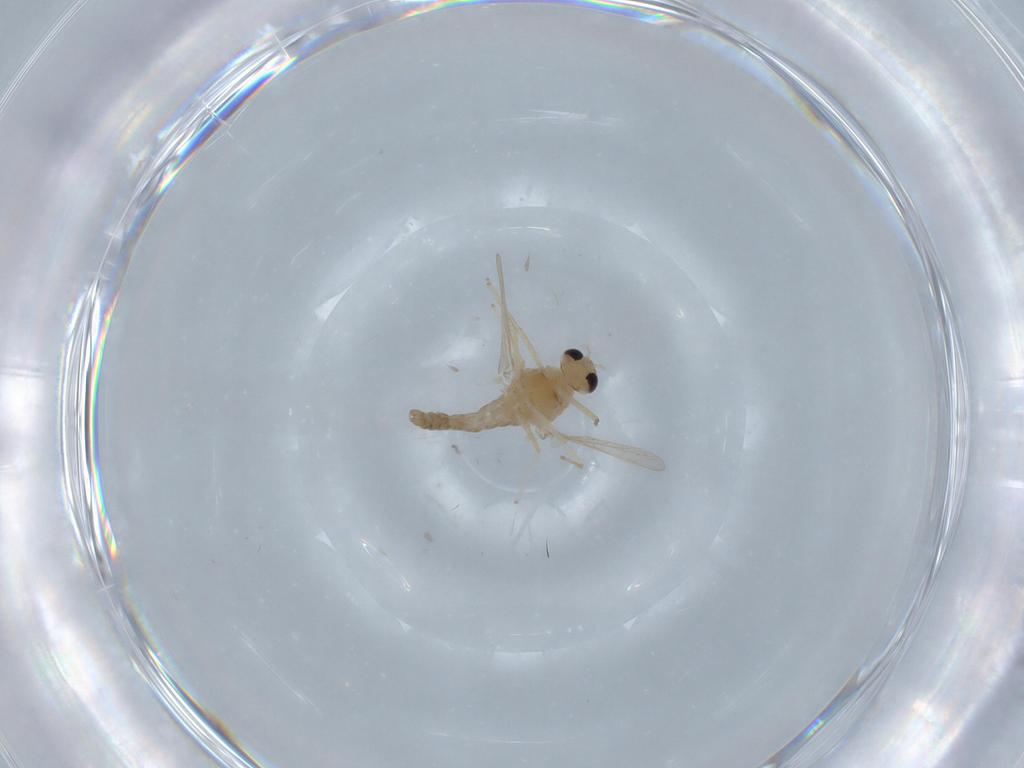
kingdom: Animalia
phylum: Arthropoda
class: Insecta
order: Diptera
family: Chironomidae
